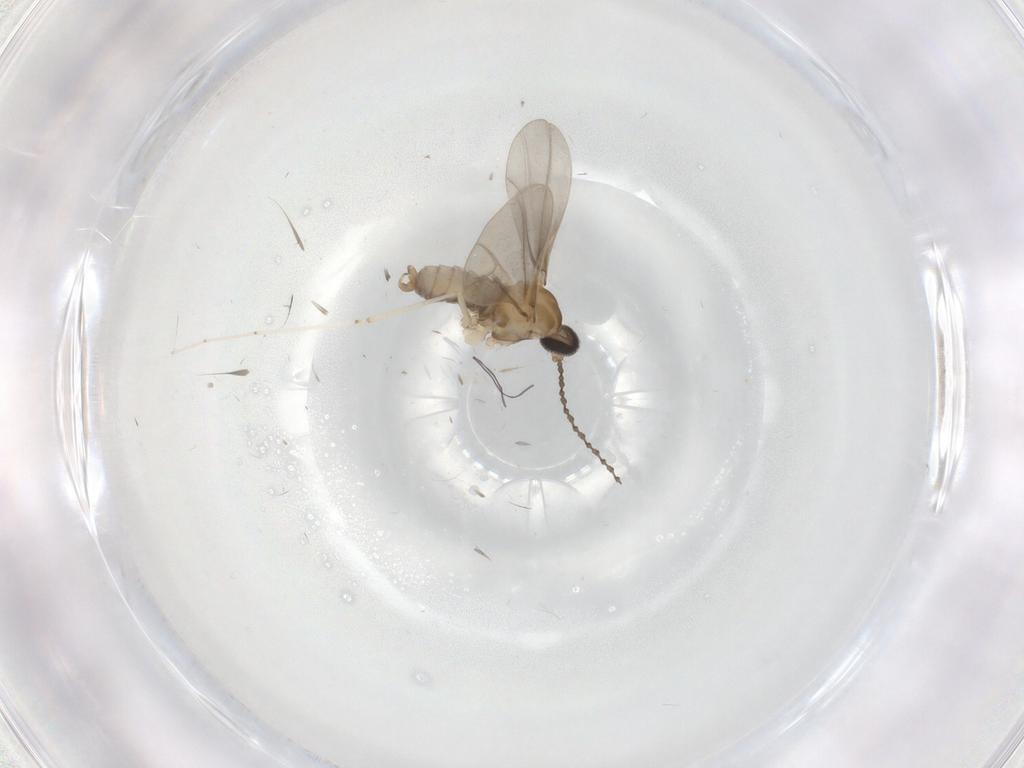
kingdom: Animalia
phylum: Arthropoda
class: Insecta
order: Diptera
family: Cecidomyiidae
